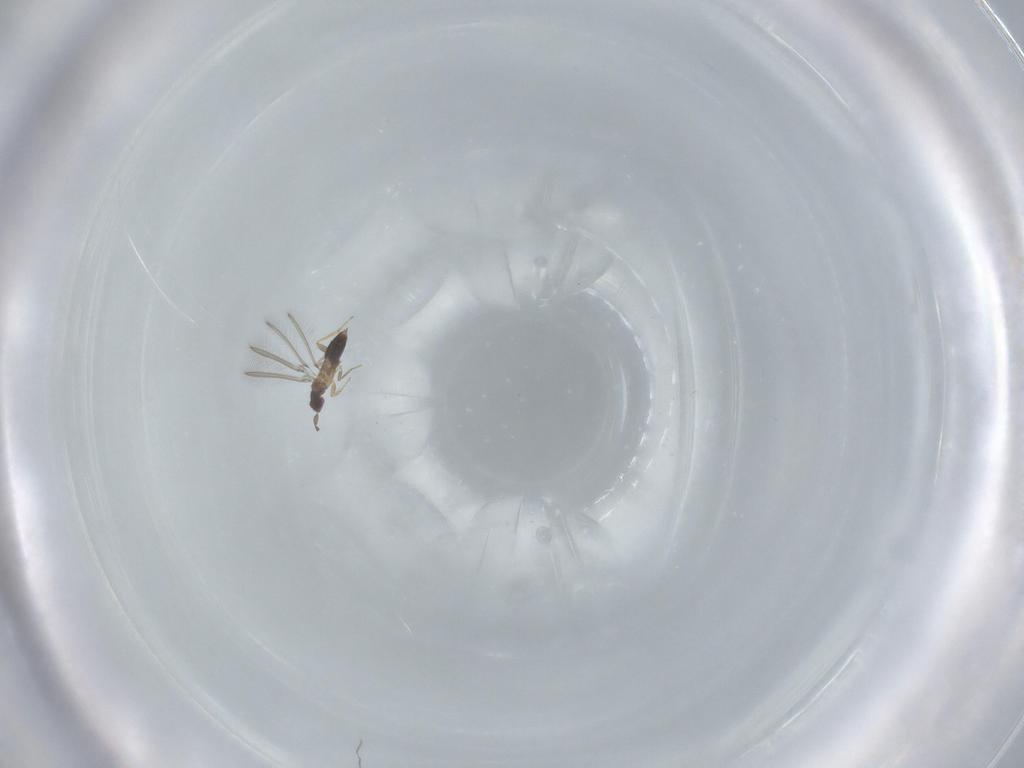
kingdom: Animalia
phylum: Arthropoda
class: Insecta
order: Hymenoptera
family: Mymaridae
